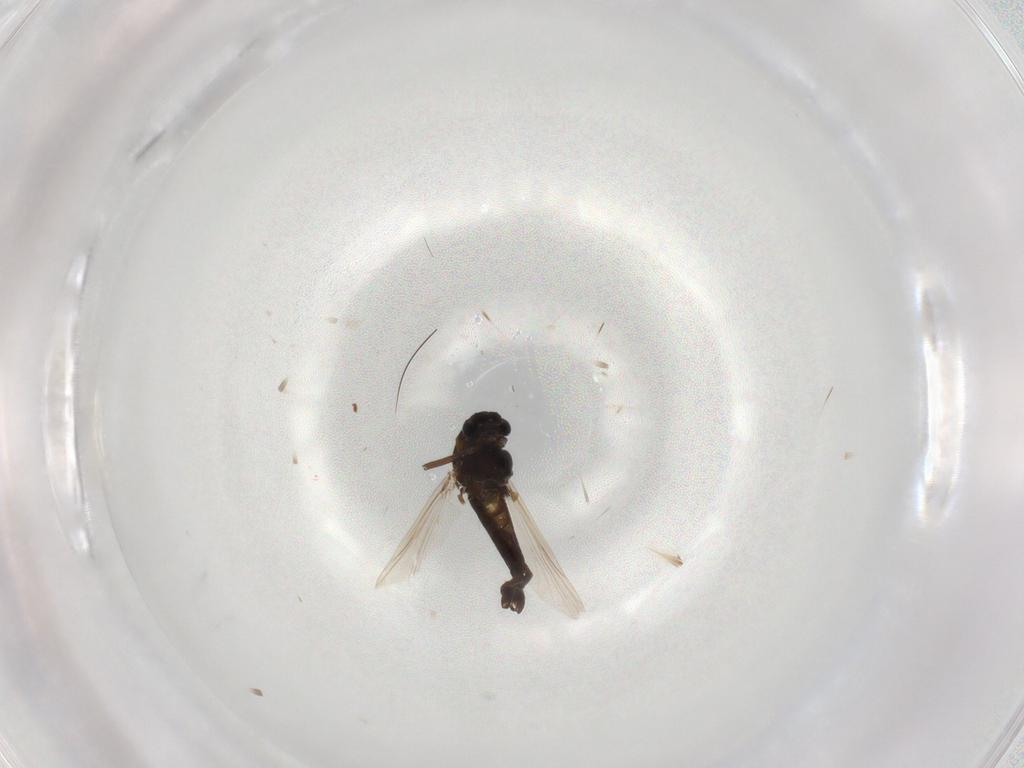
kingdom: Animalia
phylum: Arthropoda
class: Insecta
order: Diptera
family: Chironomidae
